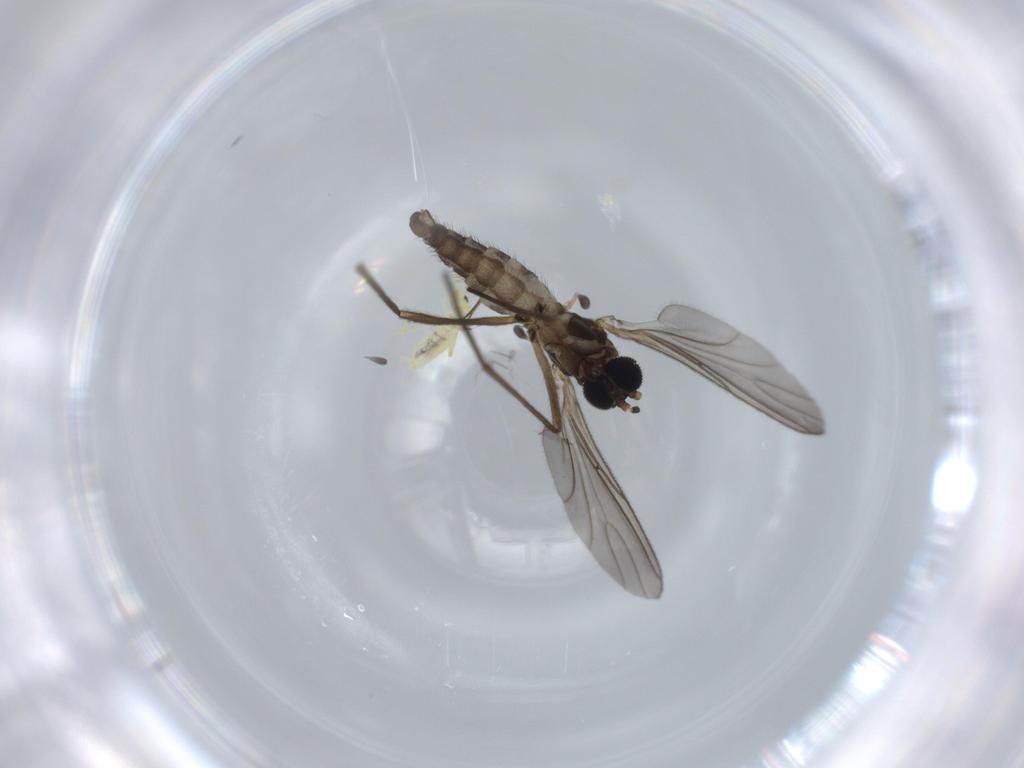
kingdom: Animalia
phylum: Arthropoda
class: Insecta
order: Diptera
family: Sciaridae
